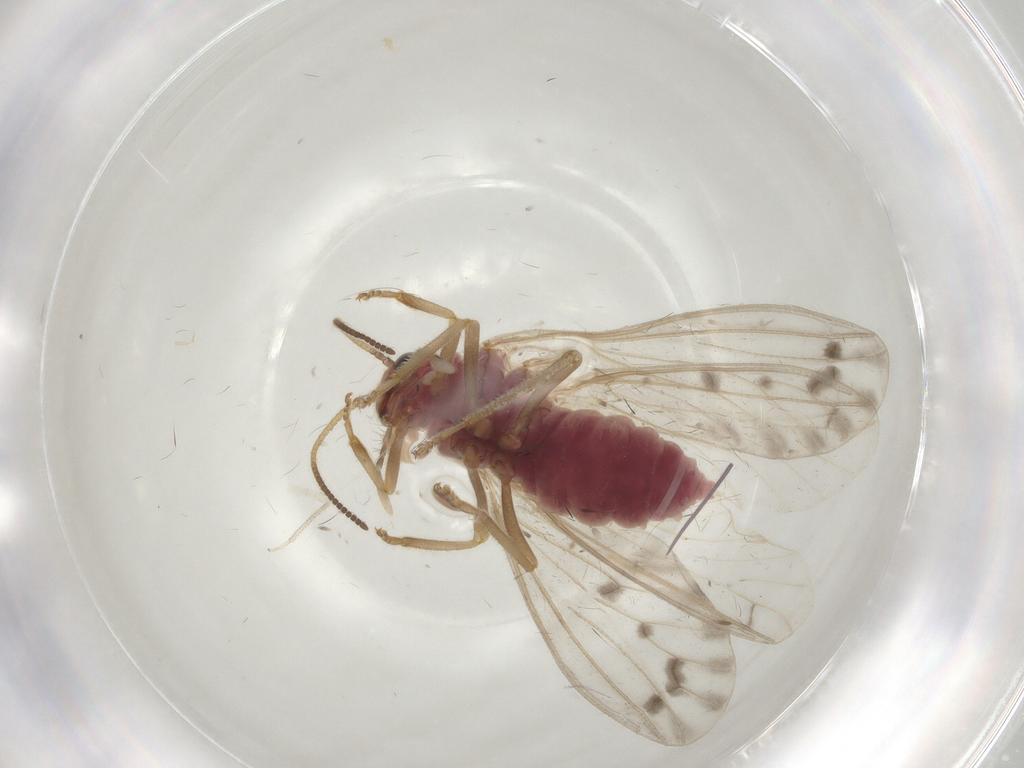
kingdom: Animalia
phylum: Arthropoda
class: Insecta
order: Neuroptera
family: Coniopterygidae
